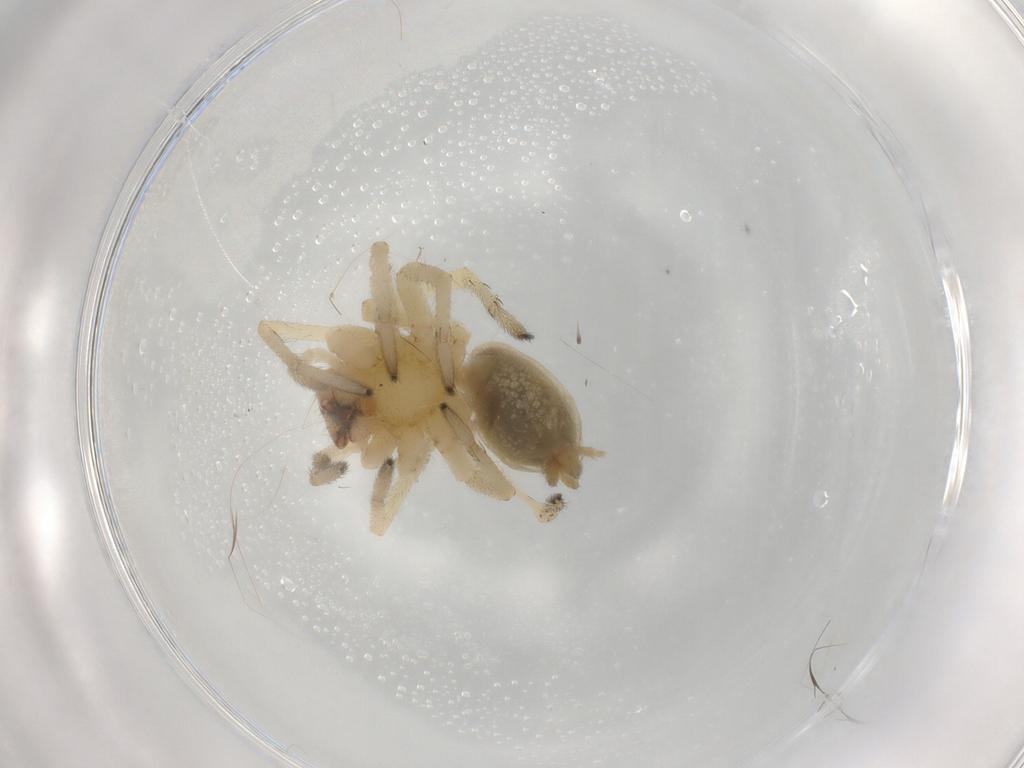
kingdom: Animalia
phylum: Arthropoda
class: Arachnida
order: Araneae
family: Cheiracanthiidae
